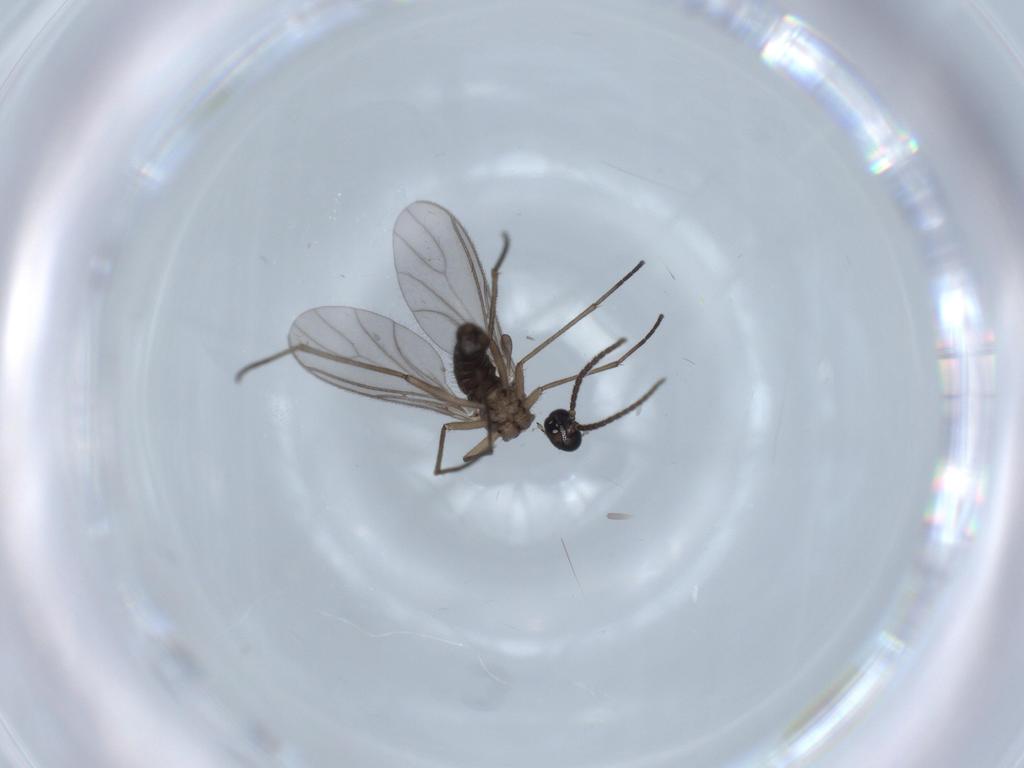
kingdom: Animalia
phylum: Arthropoda
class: Insecta
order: Diptera
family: Sciaridae
